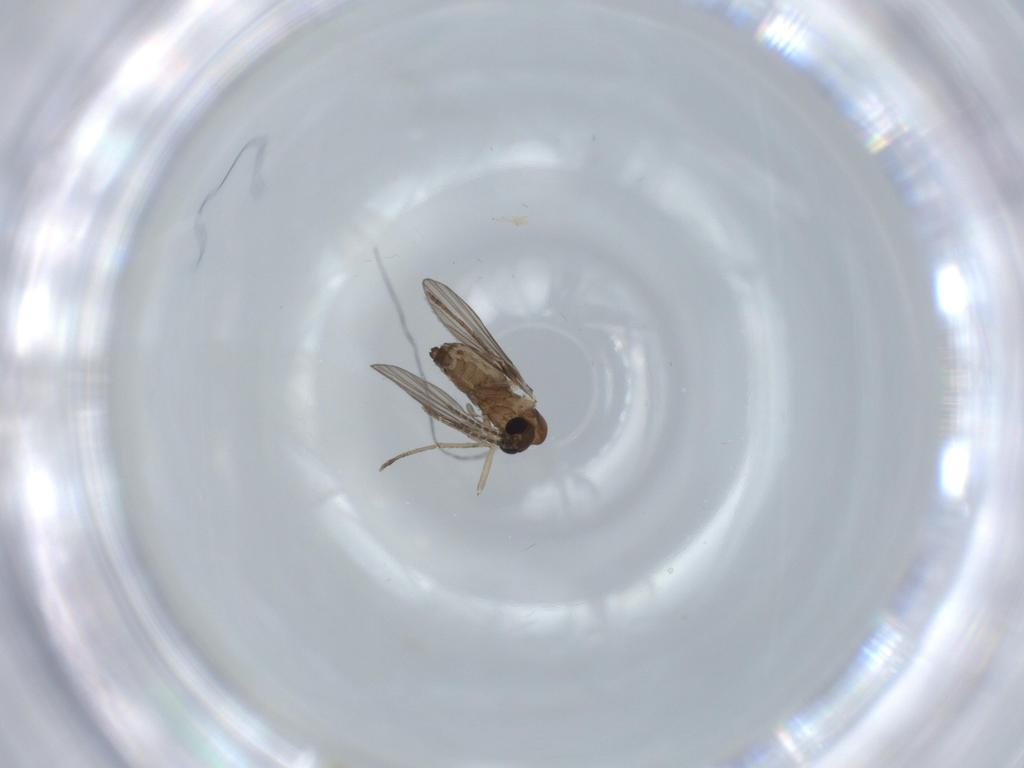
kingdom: Animalia
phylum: Arthropoda
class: Insecta
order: Diptera
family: Psychodidae
